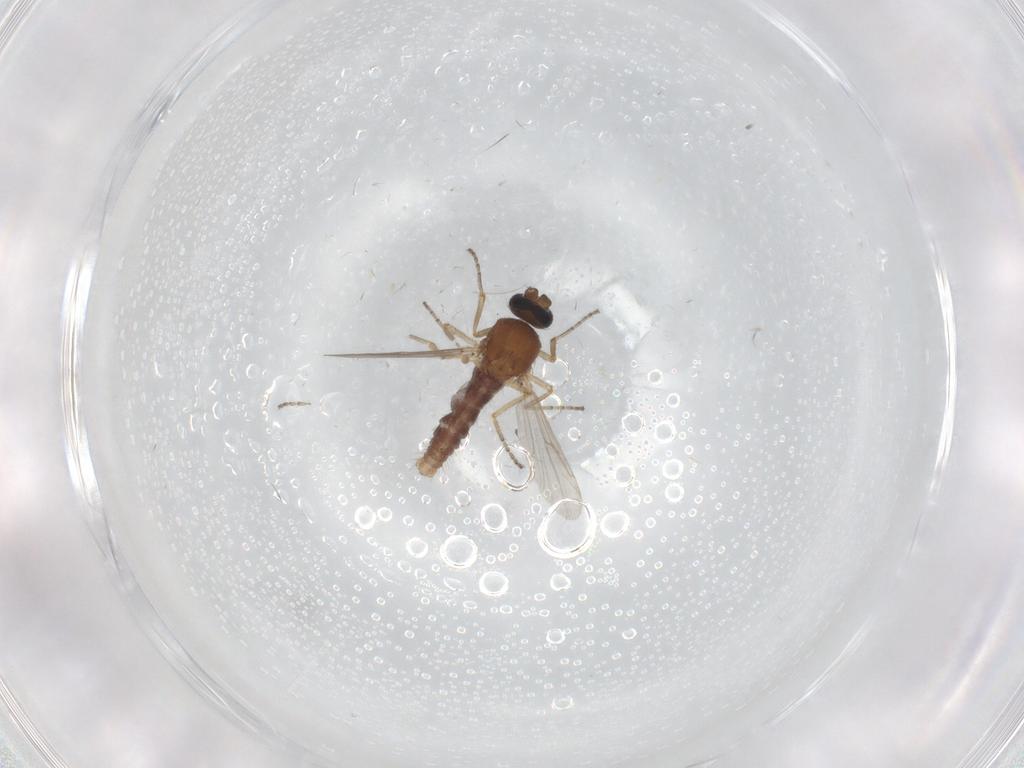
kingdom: Animalia
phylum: Arthropoda
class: Insecta
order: Diptera
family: Ceratopogonidae
